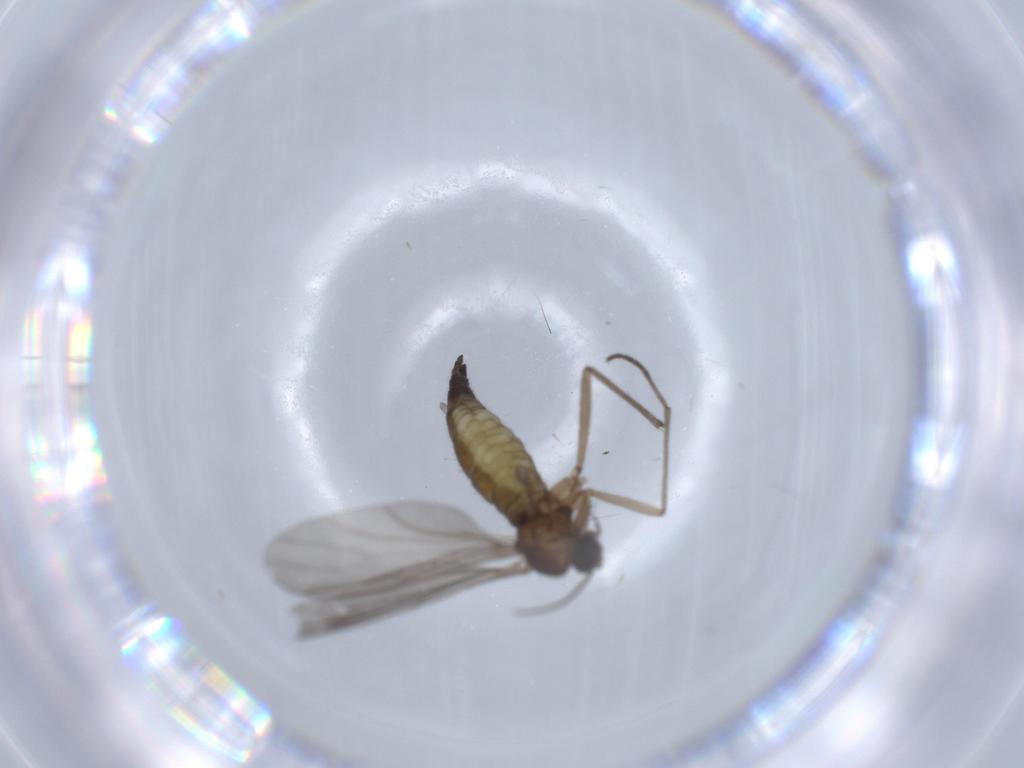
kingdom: Animalia
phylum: Arthropoda
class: Insecta
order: Diptera
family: Sciaridae
